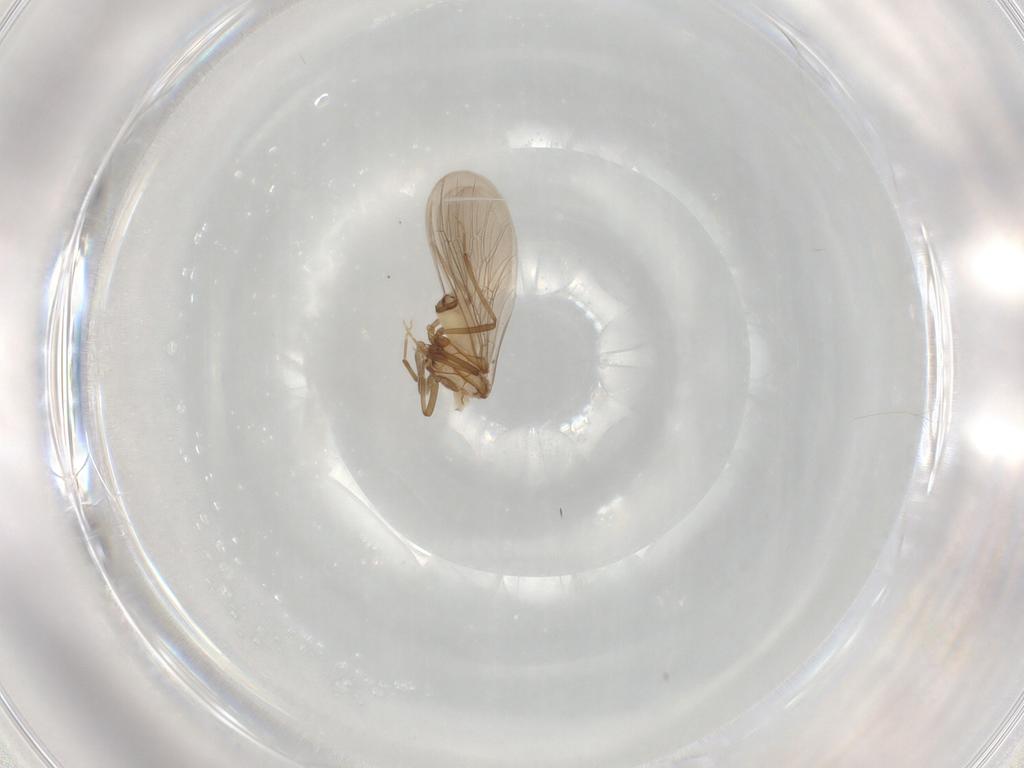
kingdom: Animalia
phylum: Arthropoda
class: Insecta
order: Neuroptera
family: Coniopterygidae
